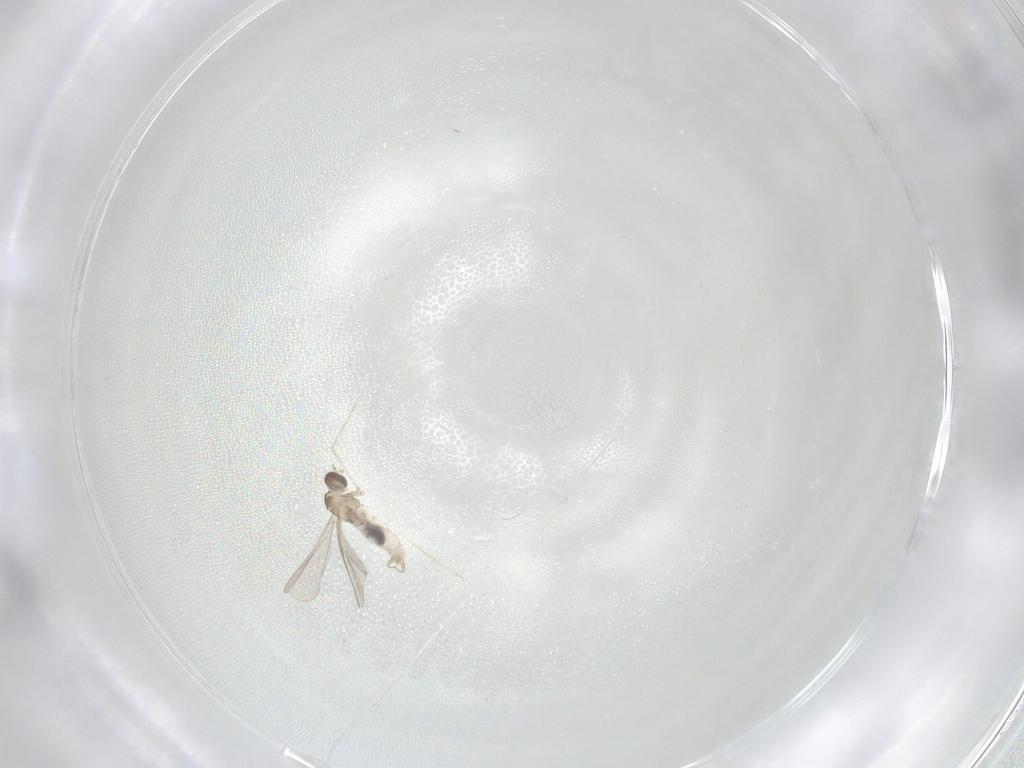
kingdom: Animalia
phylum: Arthropoda
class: Insecta
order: Diptera
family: Cecidomyiidae
